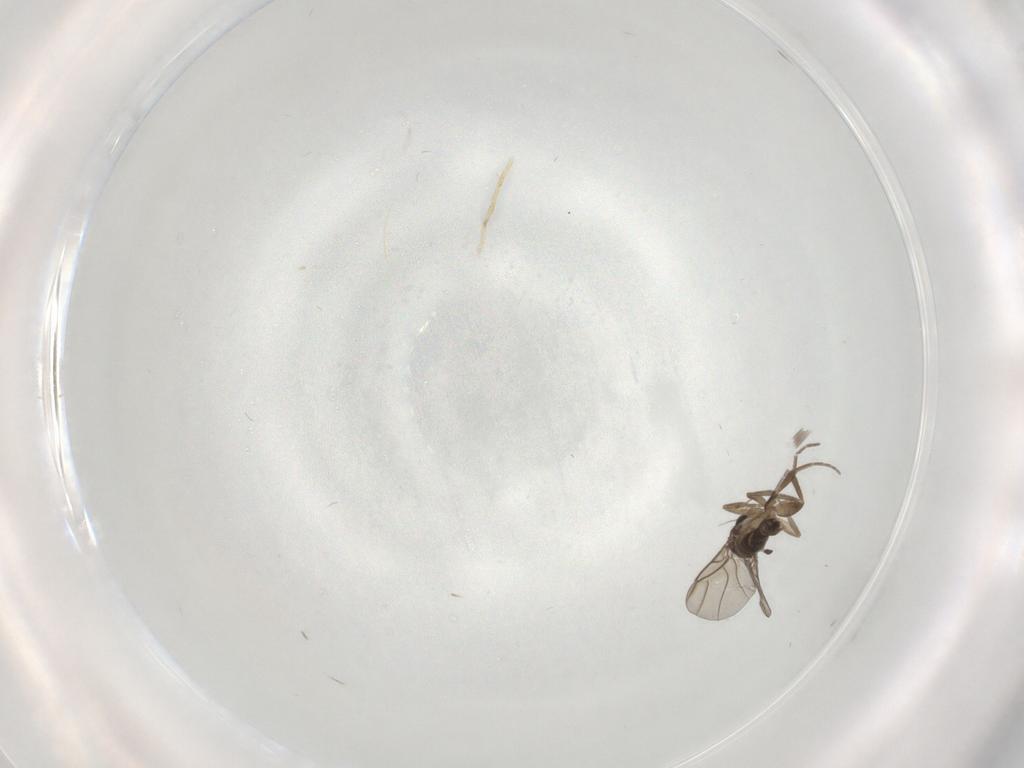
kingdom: Animalia
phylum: Arthropoda
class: Insecta
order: Diptera
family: Phoridae
